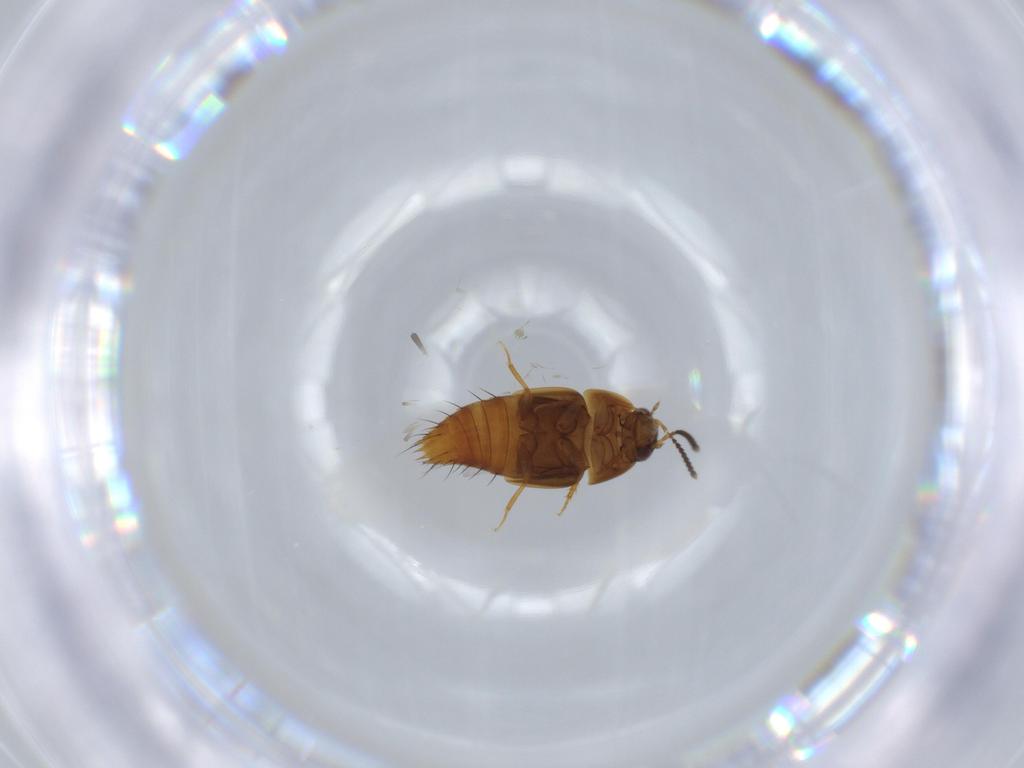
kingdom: Animalia
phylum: Arthropoda
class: Insecta
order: Coleoptera
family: Staphylinidae
